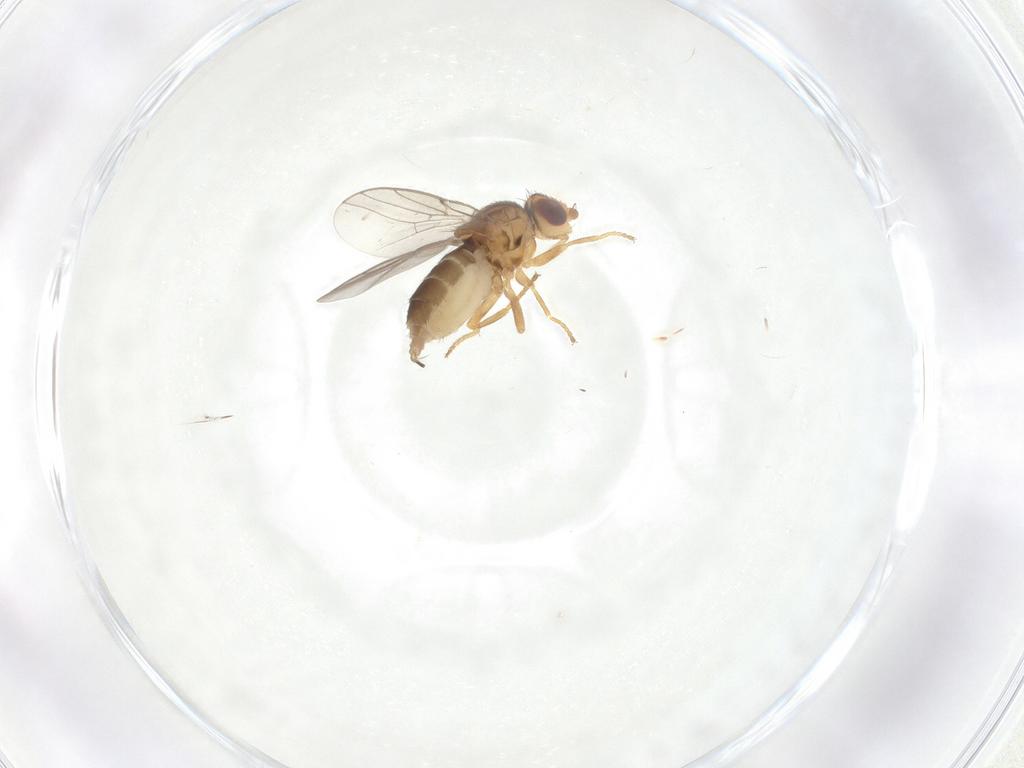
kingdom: Animalia
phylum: Arthropoda
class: Insecta
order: Diptera
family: Chloropidae
